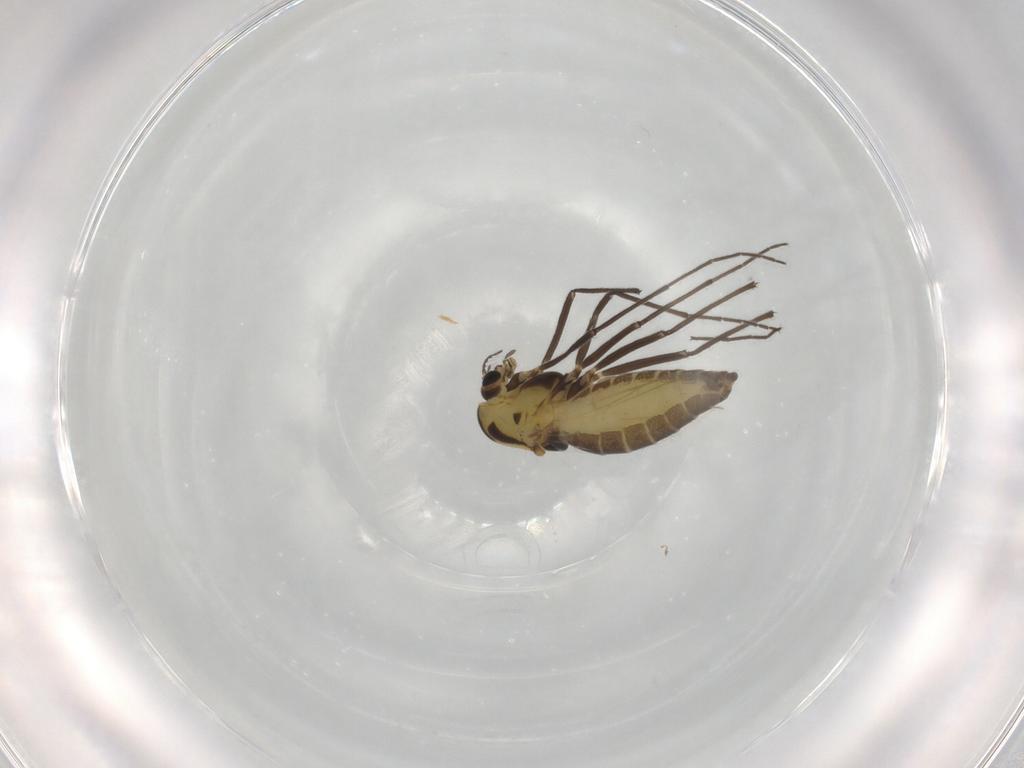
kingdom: Animalia
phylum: Arthropoda
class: Insecta
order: Diptera
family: Chironomidae
